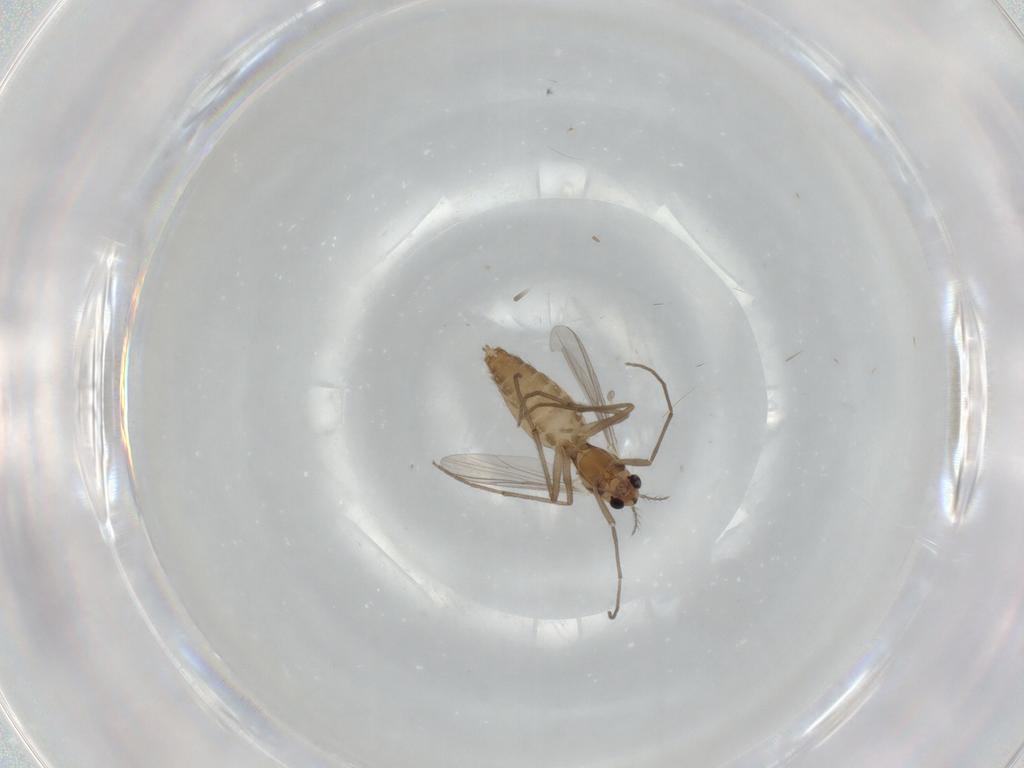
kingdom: Animalia
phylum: Arthropoda
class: Insecta
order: Diptera
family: Chironomidae
